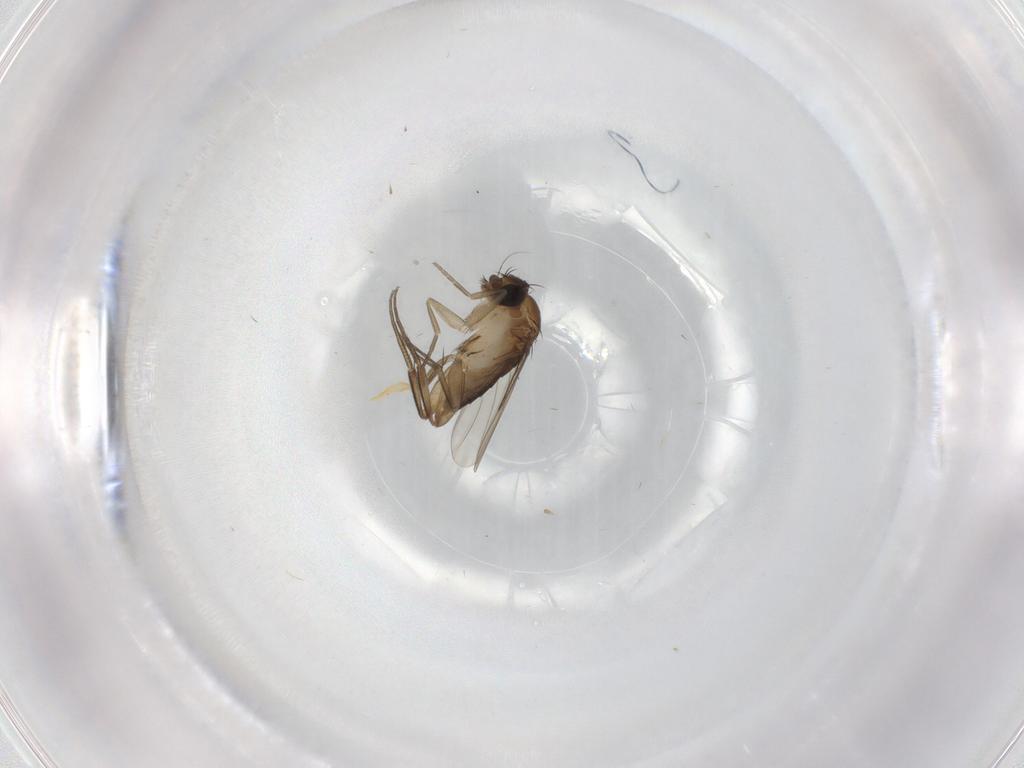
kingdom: Animalia
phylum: Arthropoda
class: Insecta
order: Diptera
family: Phoridae
